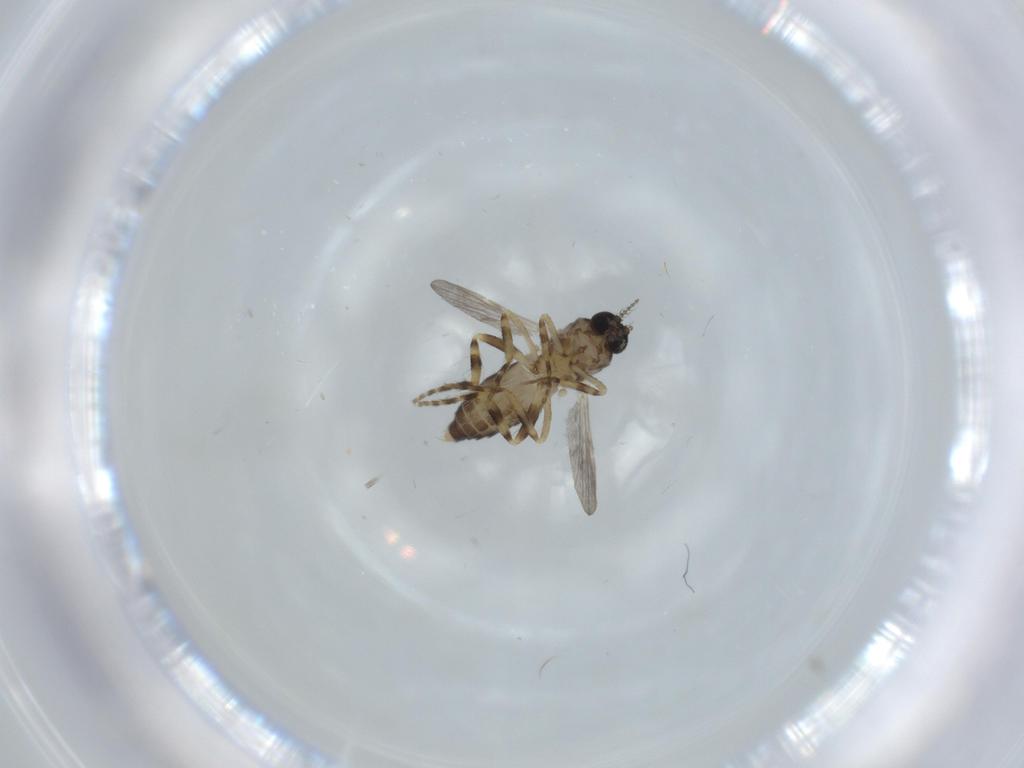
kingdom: Animalia
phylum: Arthropoda
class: Insecta
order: Diptera
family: Ceratopogonidae
